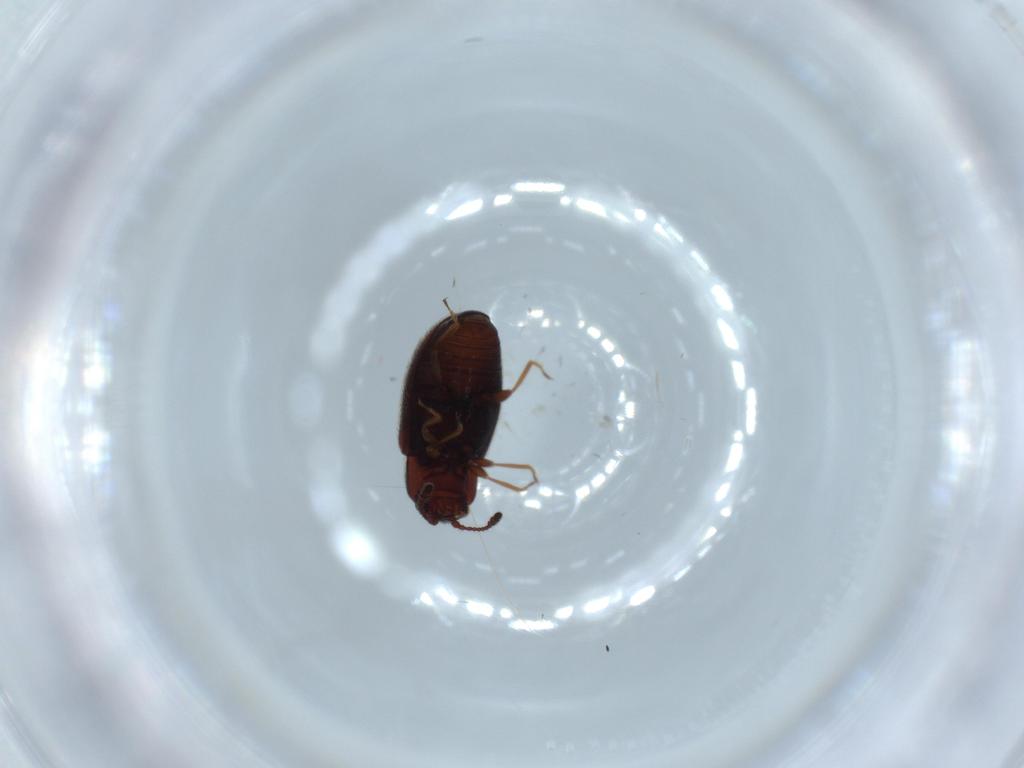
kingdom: Animalia
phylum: Arthropoda
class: Insecta
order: Coleoptera
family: Cryptophagidae
